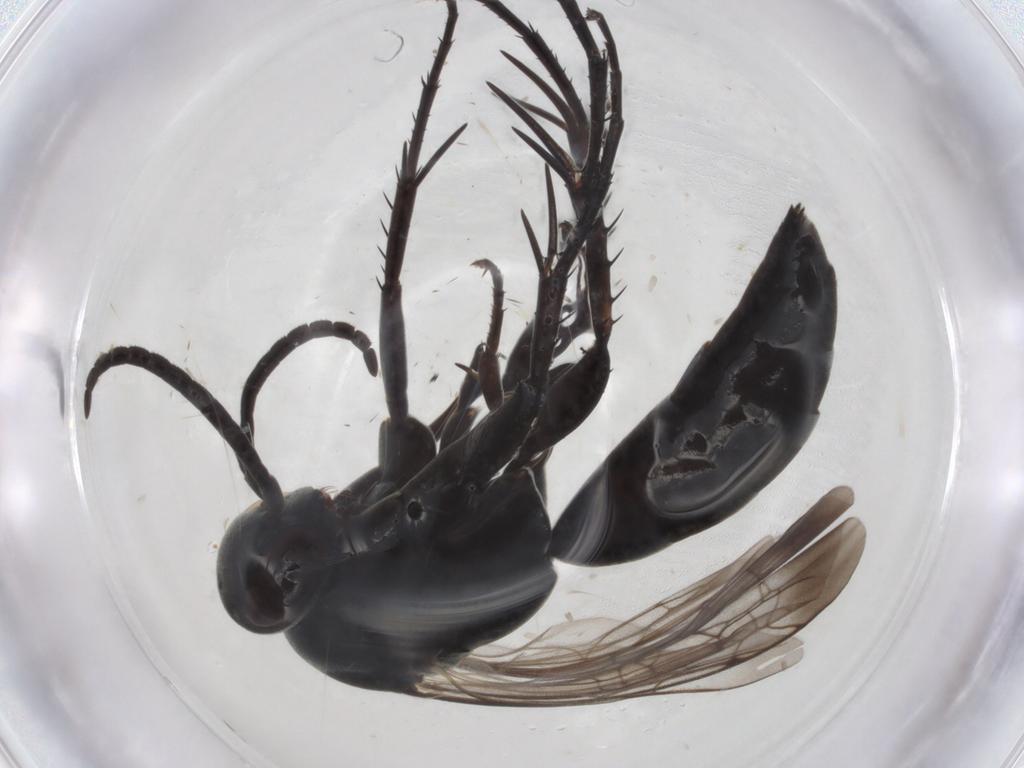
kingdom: Animalia
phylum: Arthropoda
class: Insecta
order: Hymenoptera
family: Pompilidae
